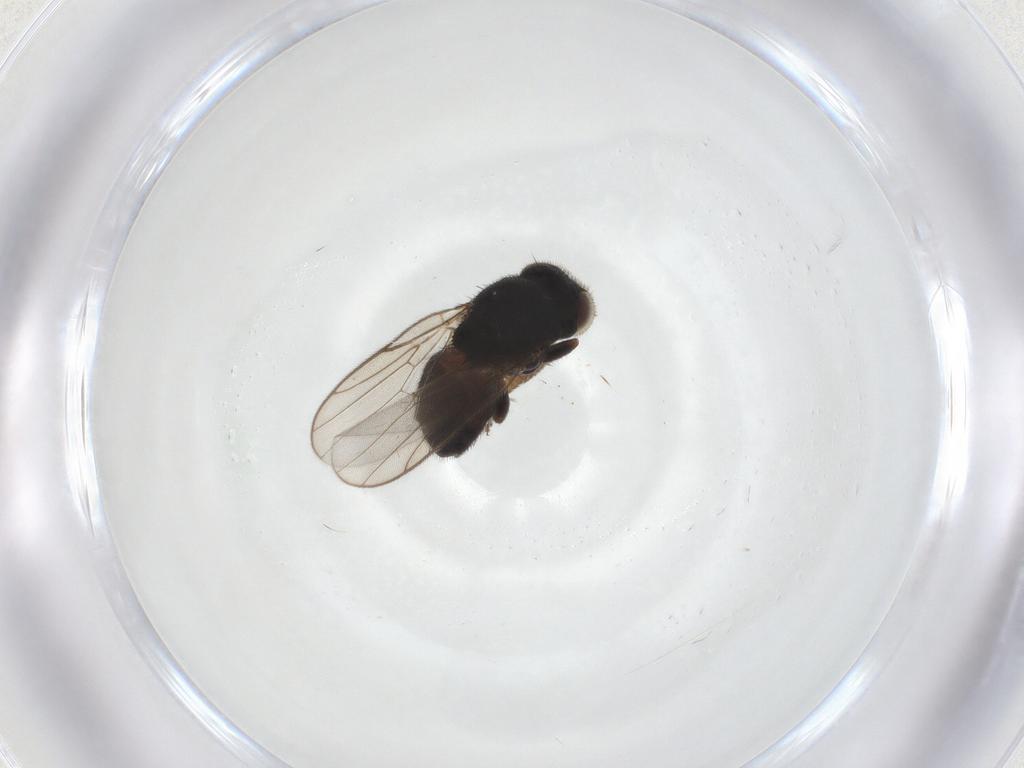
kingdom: Animalia
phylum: Arthropoda
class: Insecta
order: Diptera
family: Chloropidae
